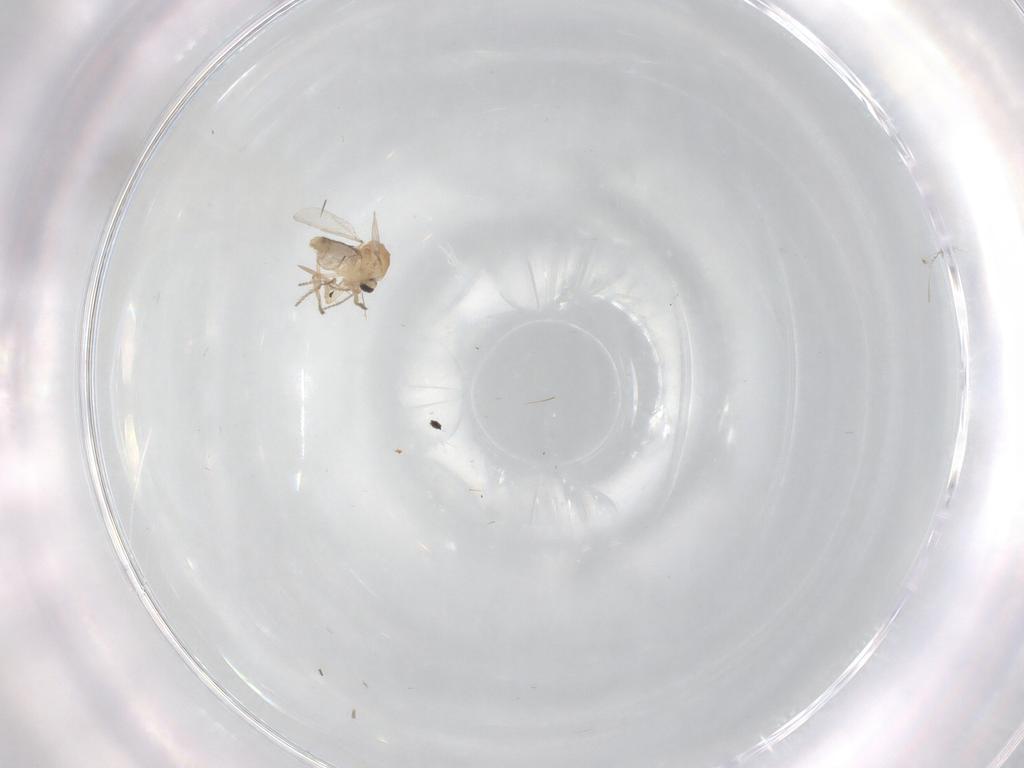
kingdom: Animalia
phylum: Arthropoda
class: Insecta
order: Diptera
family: Ceratopogonidae
